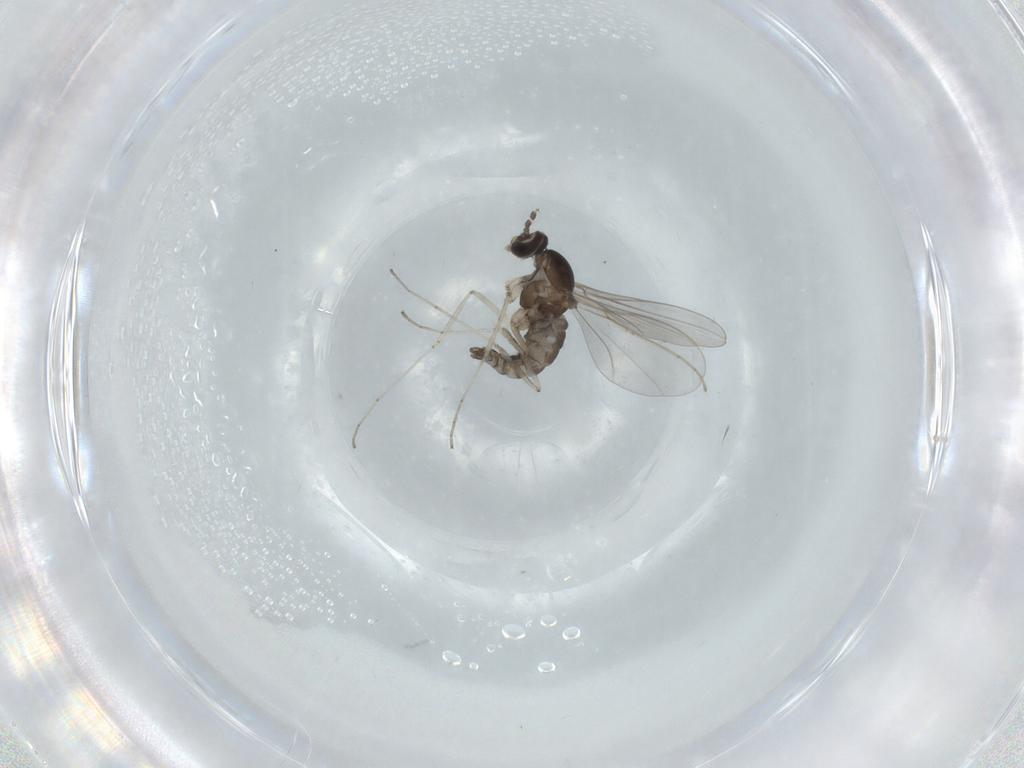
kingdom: Animalia
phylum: Arthropoda
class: Insecta
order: Diptera
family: Cecidomyiidae
